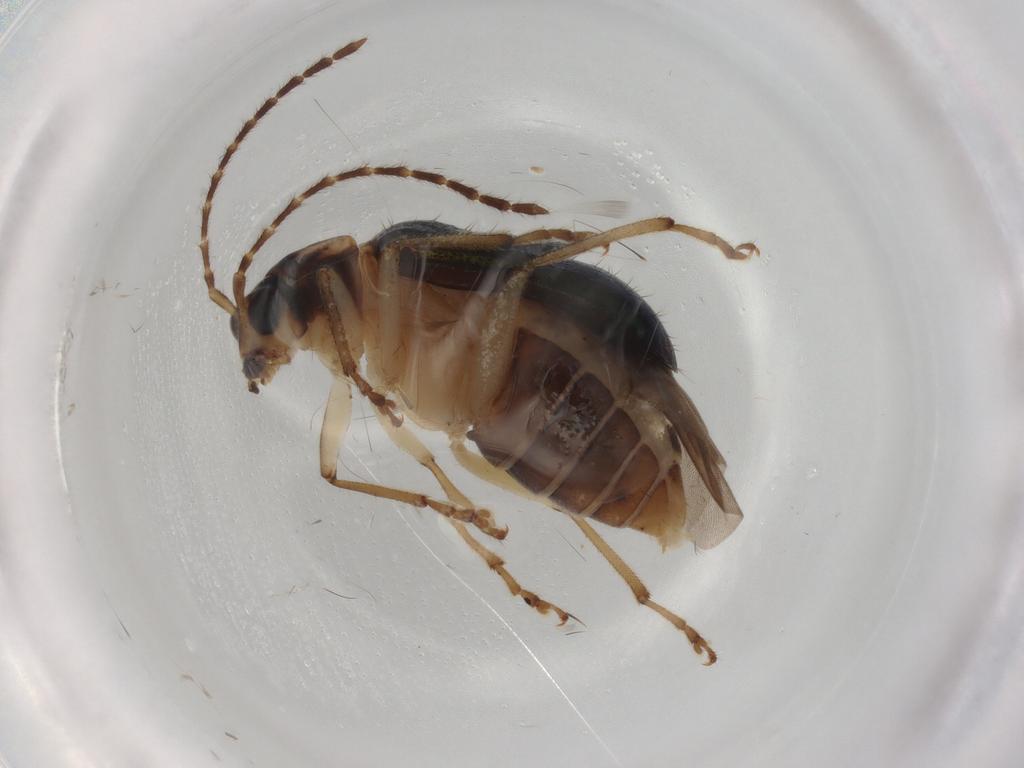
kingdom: Animalia
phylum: Arthropoda
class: Insecta
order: Coleoptera
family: Chrysomelidae
